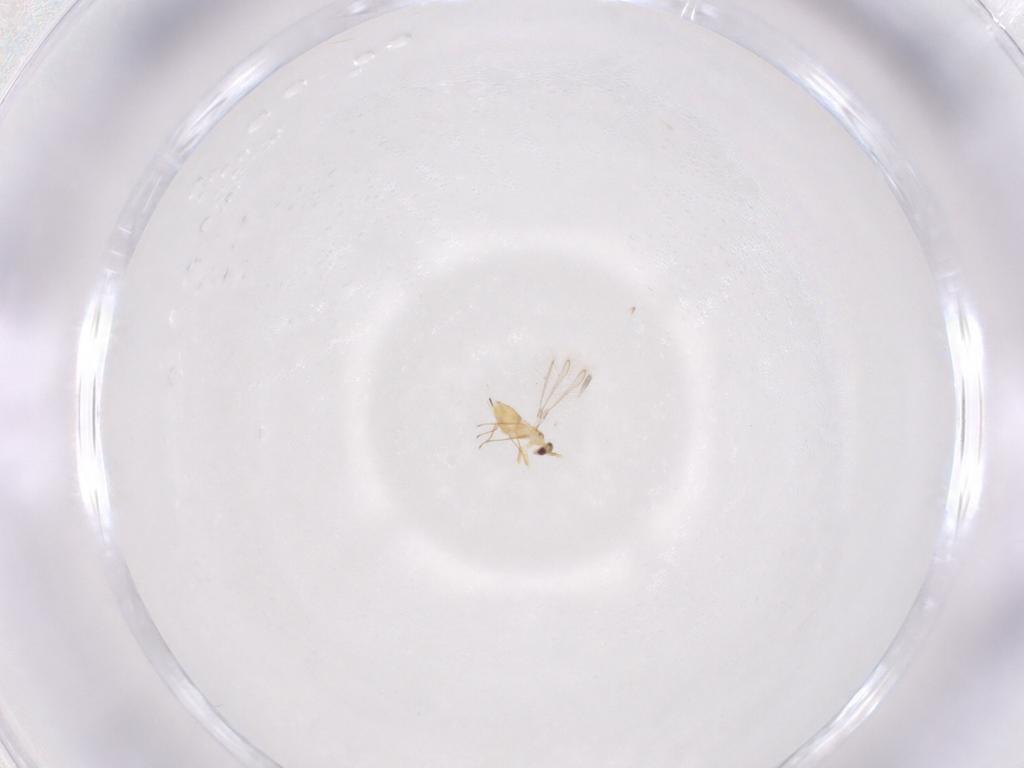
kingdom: Animalia
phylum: Arthropoda
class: Insecta
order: Hymenoptera
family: Mymaridae
